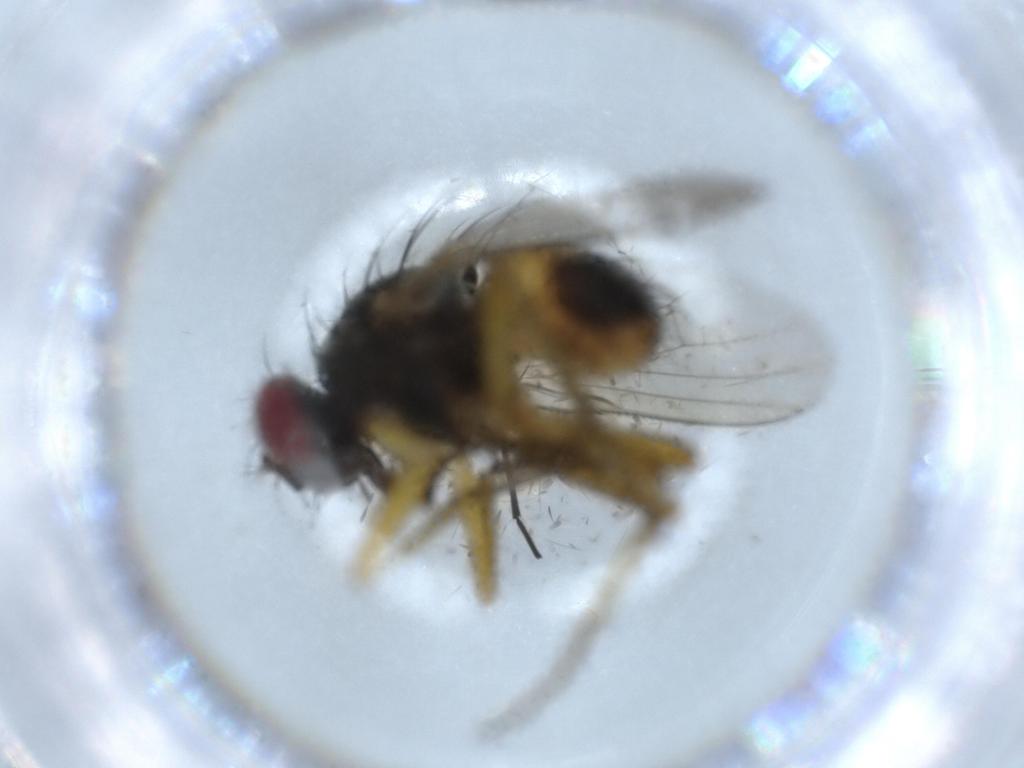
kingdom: Animalia
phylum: Arthropoda
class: Insecta
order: Diptera
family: Muscidae
